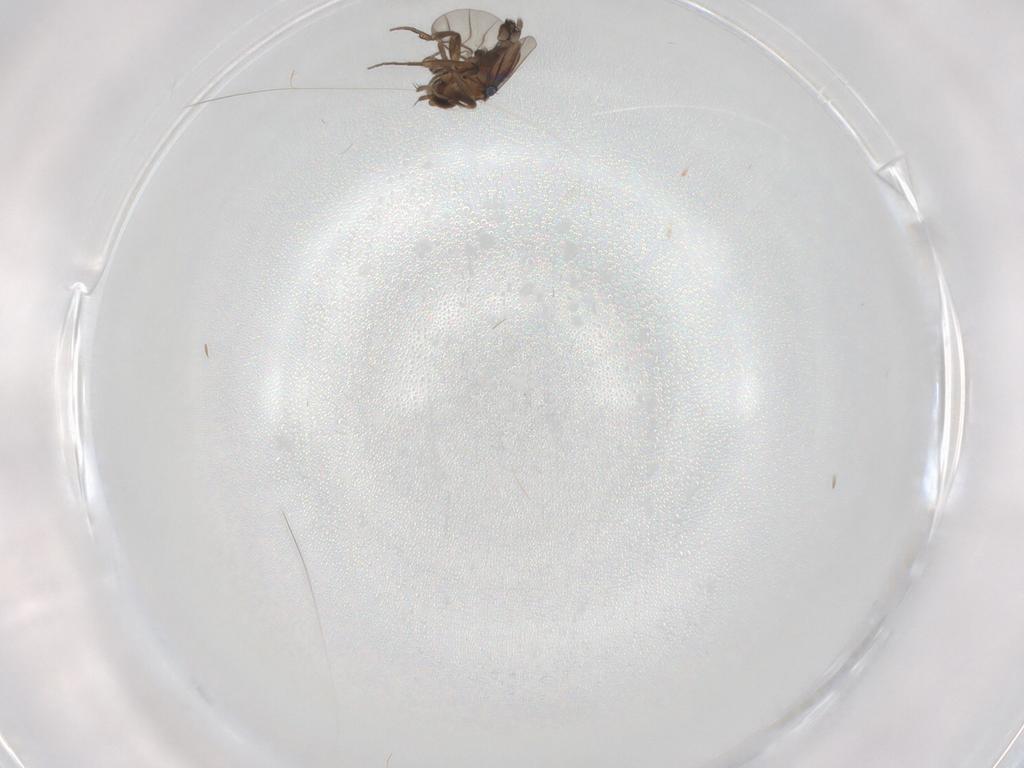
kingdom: Animalia
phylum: Arthropoda
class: Insecta
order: Diptera
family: Phoridae
